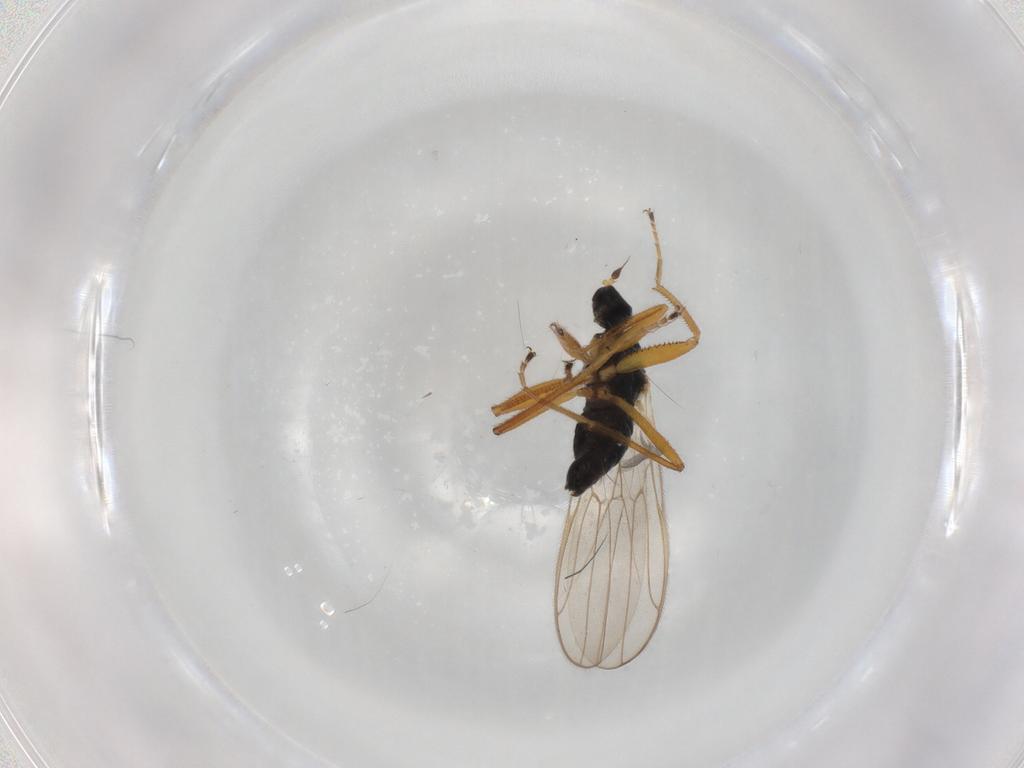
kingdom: Animalia
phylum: Arthropoda
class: Insecta
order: Diptera
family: Hybotidae
